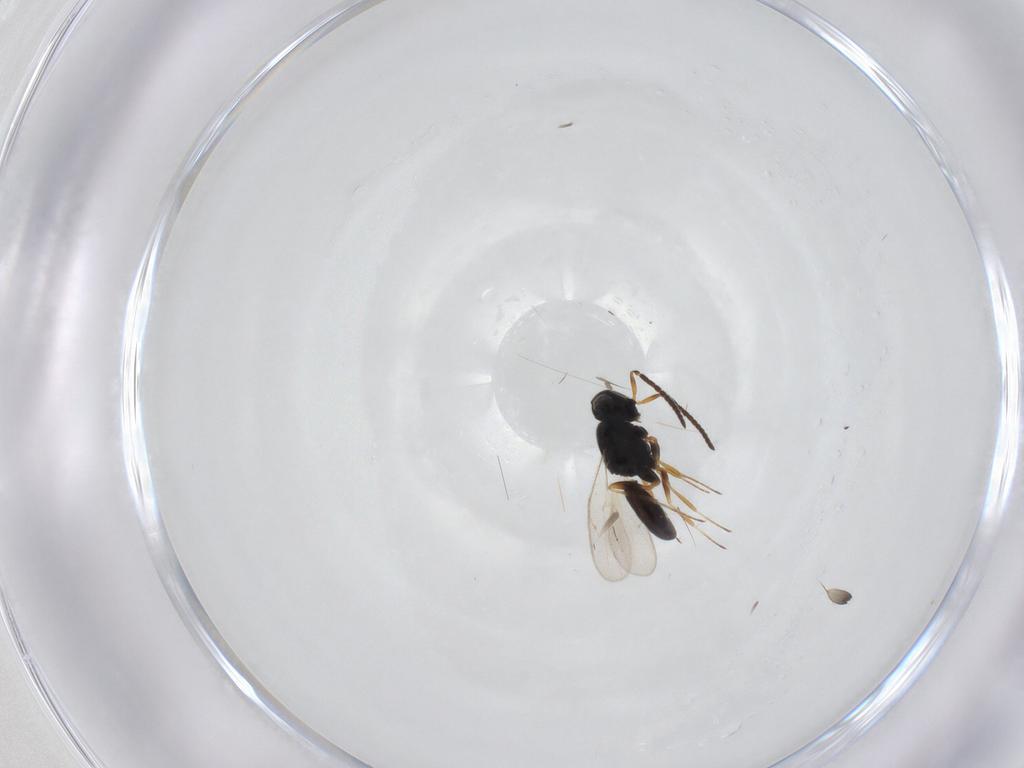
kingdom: Animalia
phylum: Arthropoda
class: Insecta
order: Hymenoptera
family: Scelionidae
